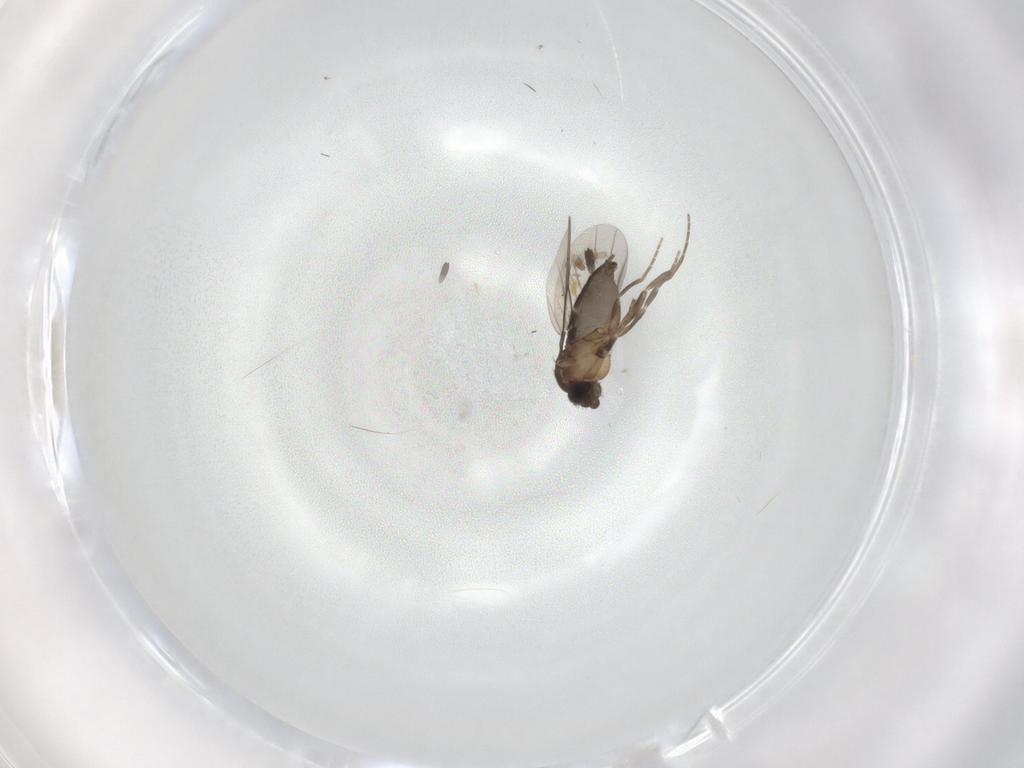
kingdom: Animalia
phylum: Arthropoda
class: Insecta
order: Diptera
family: Phoridae
